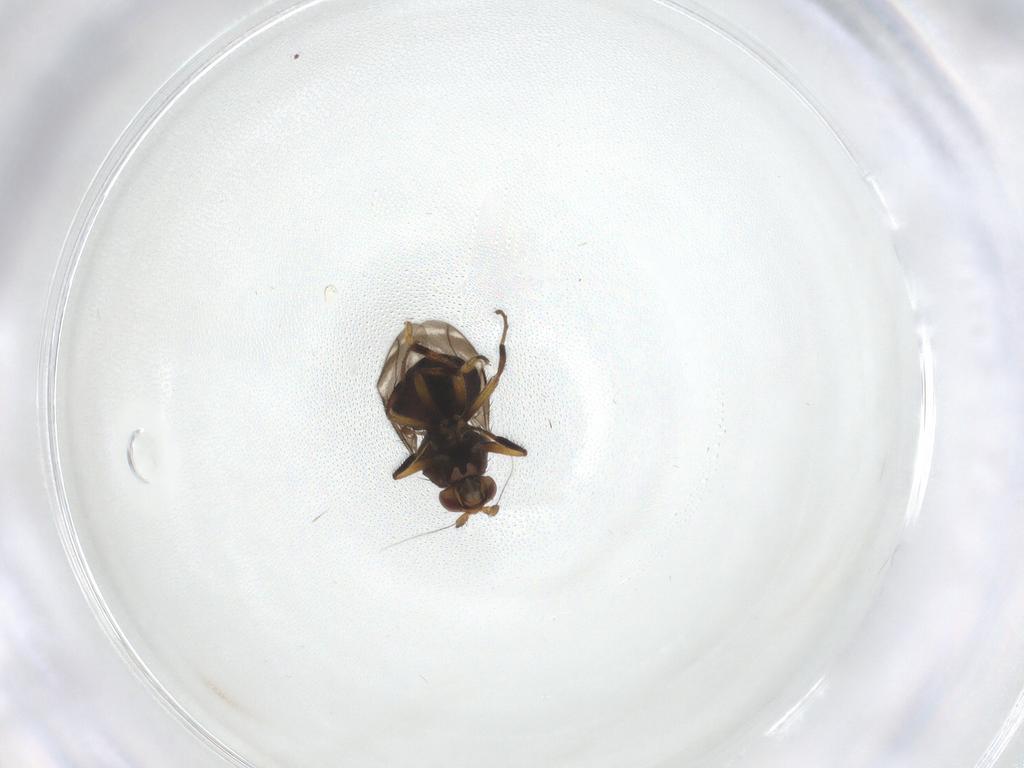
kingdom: Animalia
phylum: Arthropoda
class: Insecta
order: Diptera
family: Sphaeroceridae
